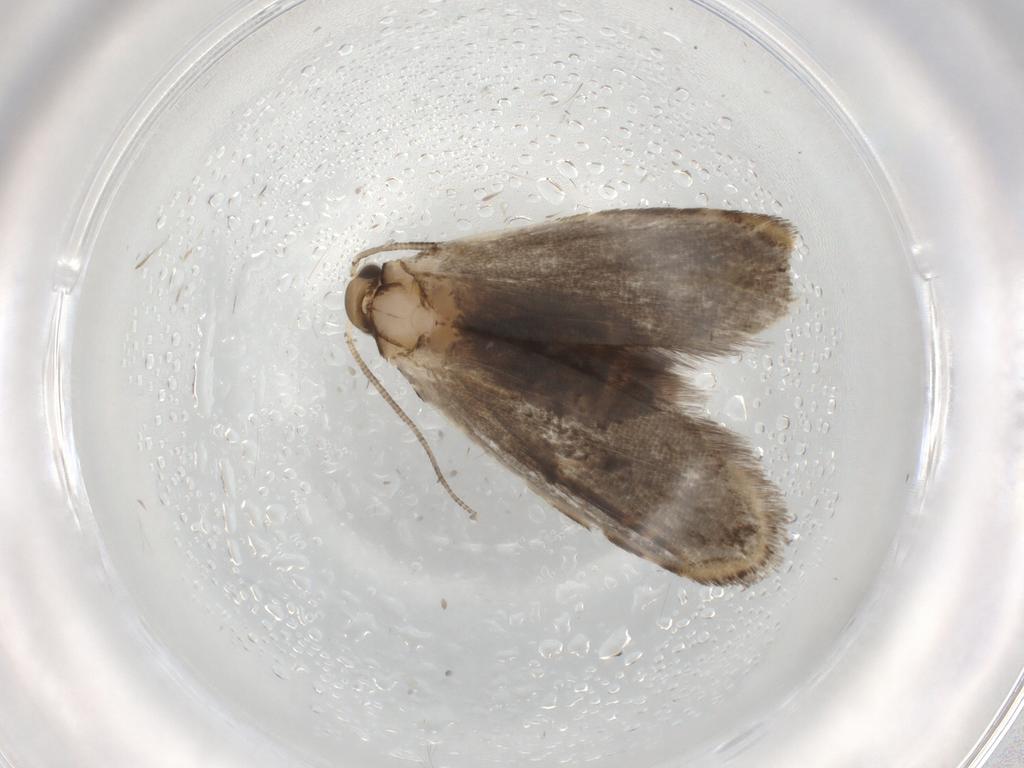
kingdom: Animalia
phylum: Arthropoda
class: Insecta
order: Lepidoptera
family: Dryadaulidae
